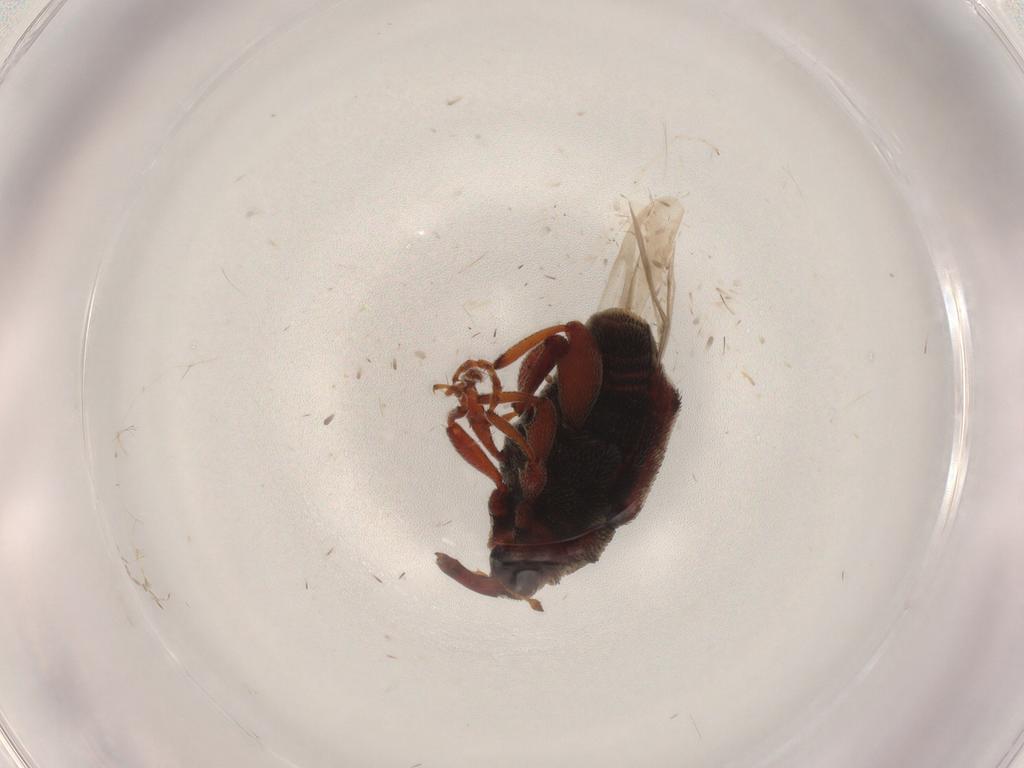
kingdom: Animalia
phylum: Arthropoda
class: Insecta
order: Coleoptera
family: Curculionidae
